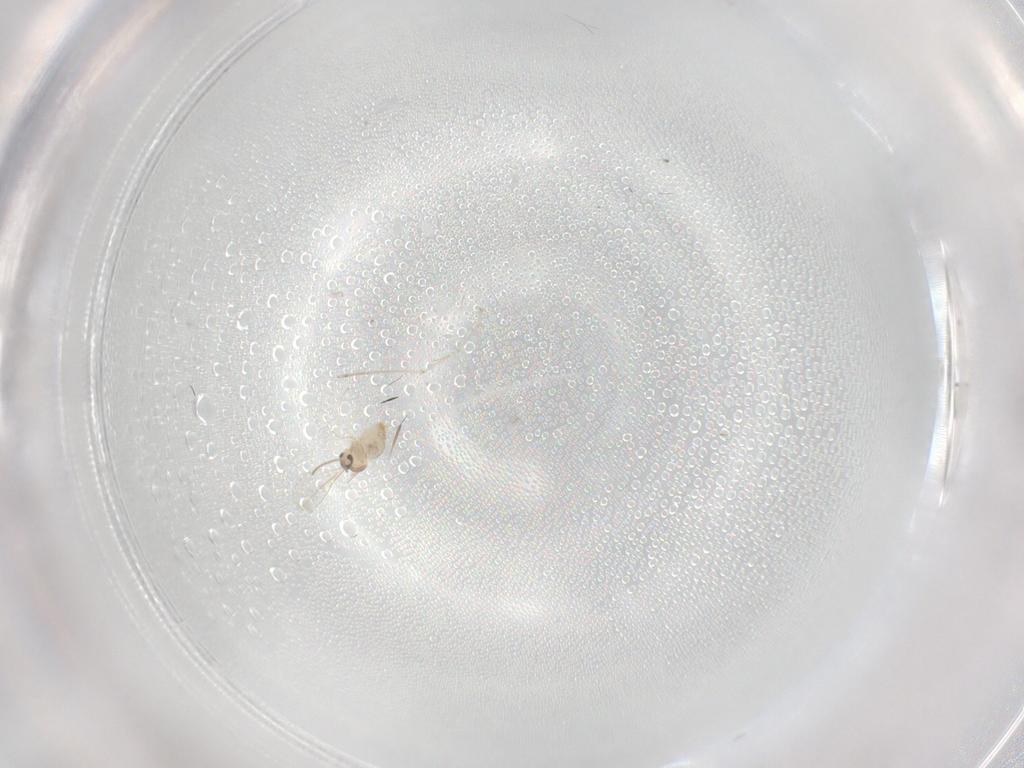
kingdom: Animalia
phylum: Arthropoda
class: Insecta
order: Diptera
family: Cecidomyiidae
